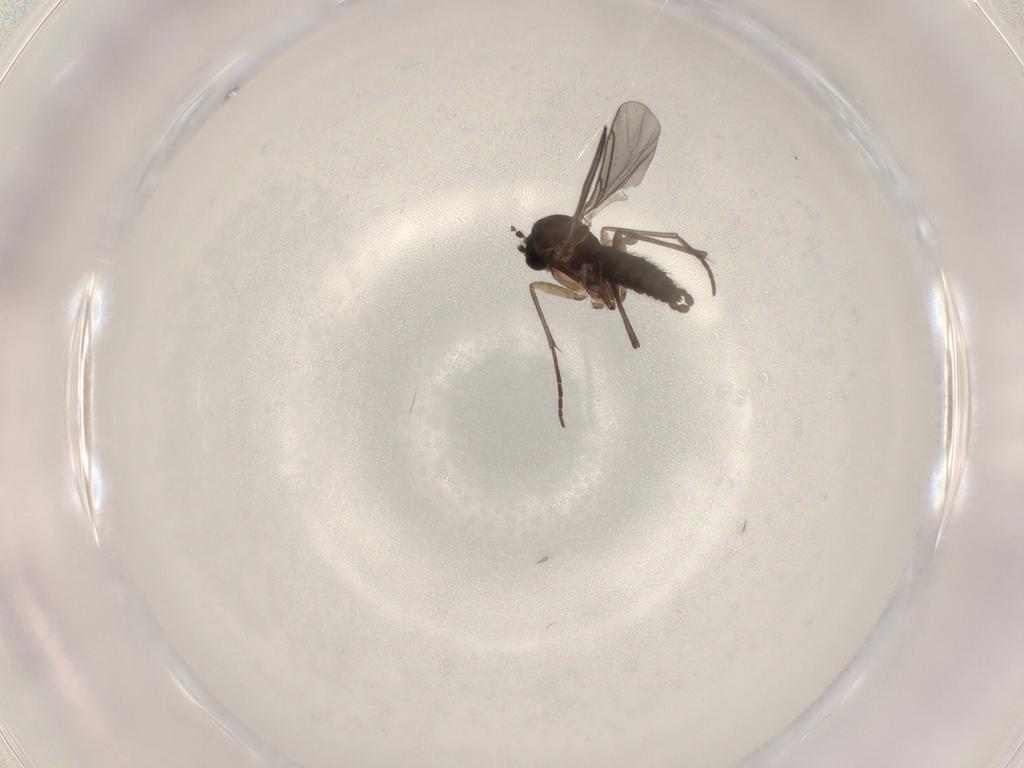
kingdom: Animalia
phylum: Arthropoda
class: Insecta
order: Diptera
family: Sciaridae
